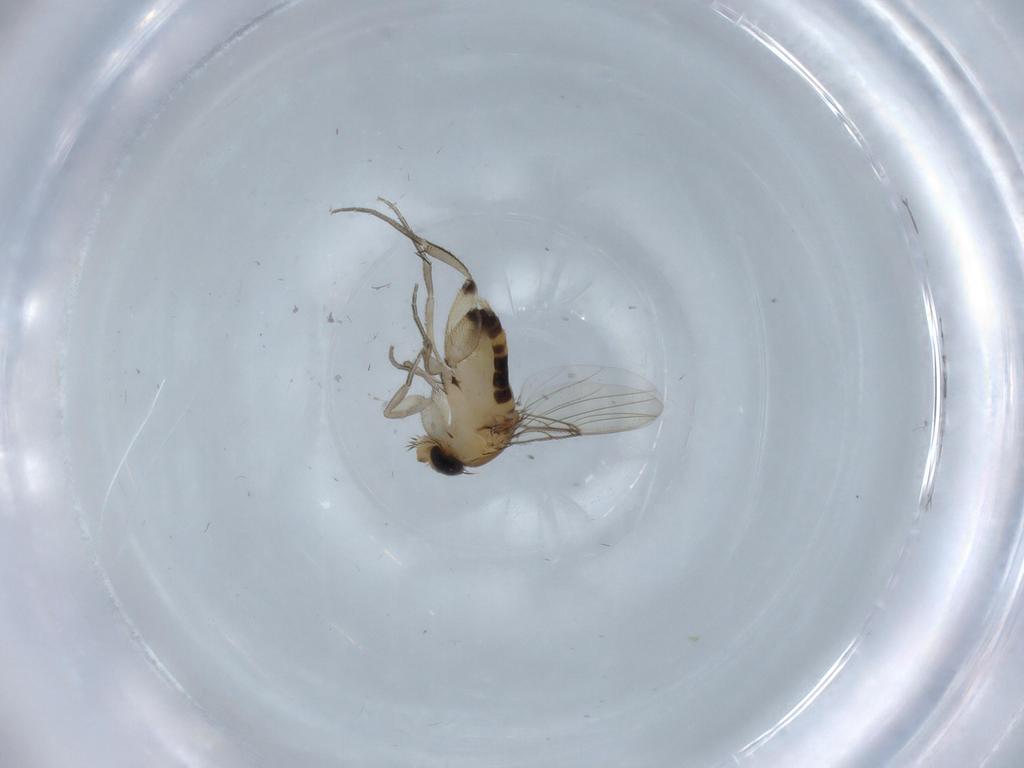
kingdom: Animalia
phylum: Arthropoda
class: Insecta
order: Diptera
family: Phoridae
